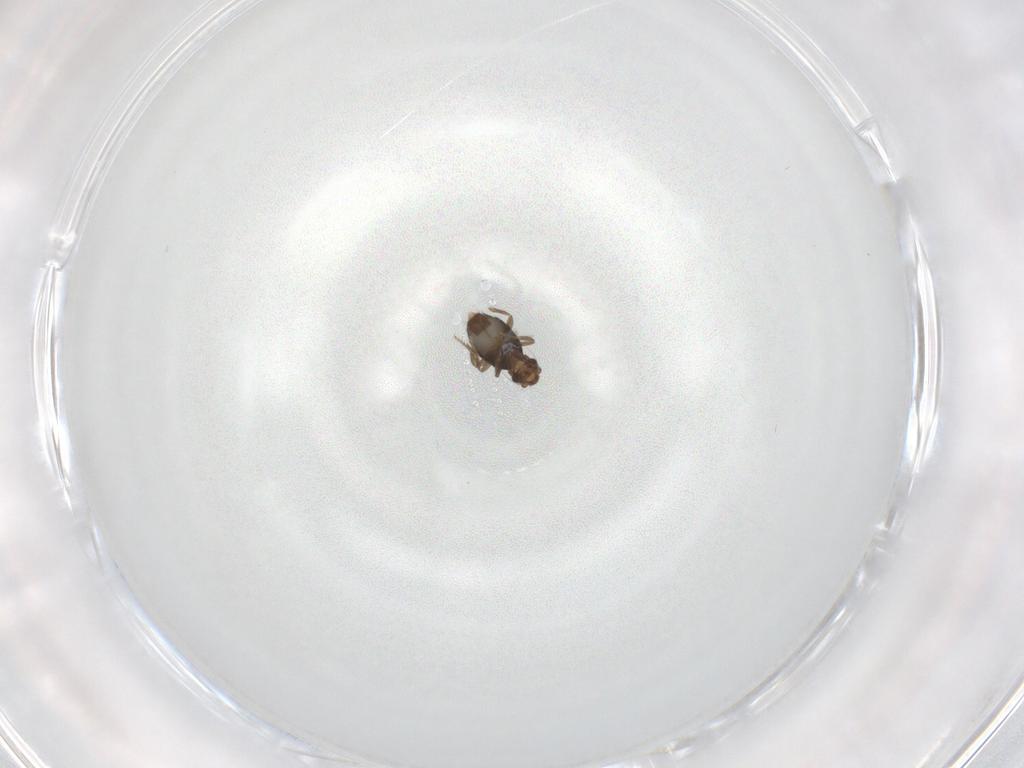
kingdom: Animalia
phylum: Arthropoda
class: Insecta
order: Diptera
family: Phoridae
